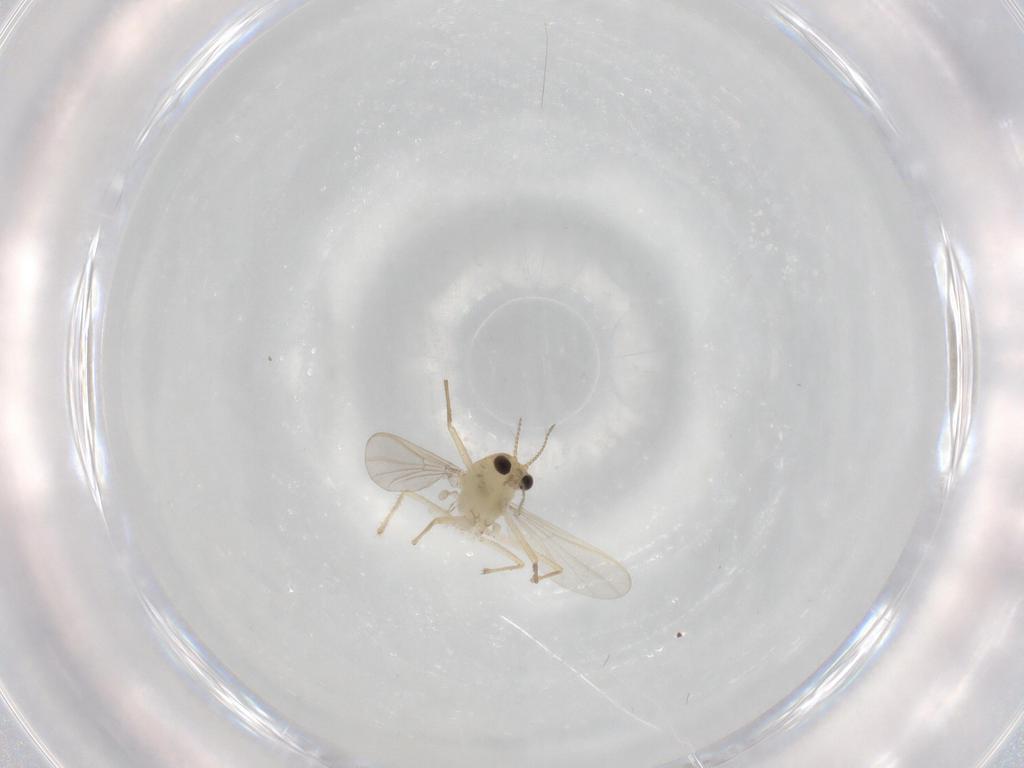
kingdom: Animalia
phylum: Arthropoda
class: Insecta
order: Diptera
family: Chironomidae
